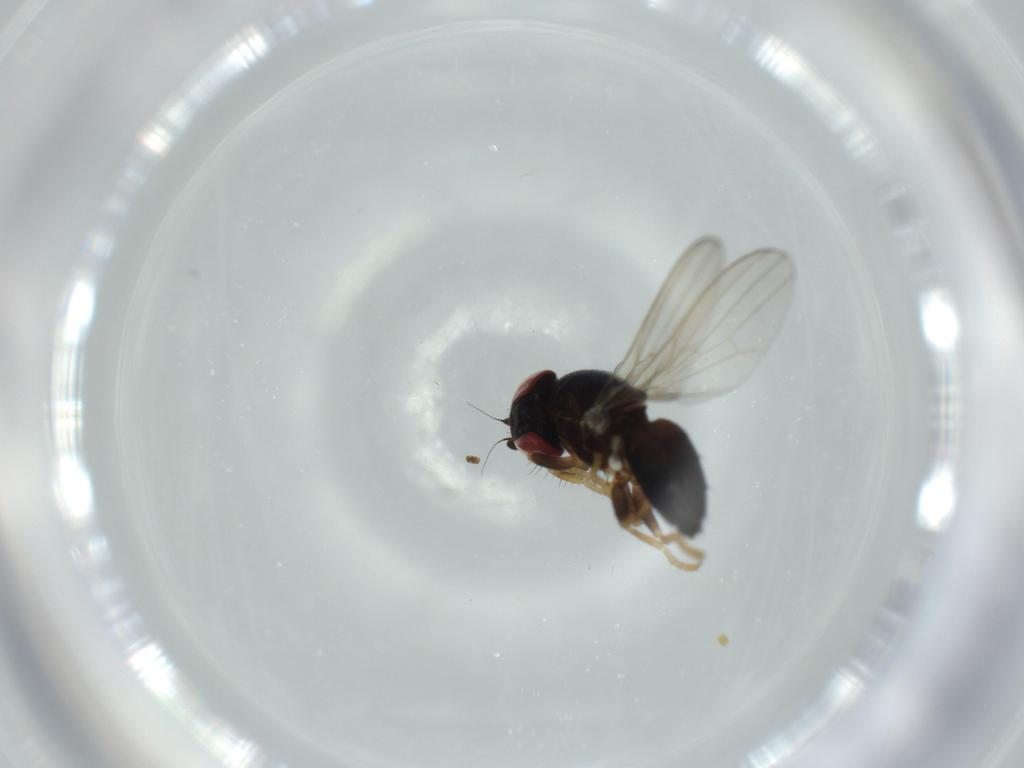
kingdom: Animalia
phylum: Arthropoda
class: Insecta
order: Diptera
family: Chamaemyiidae
